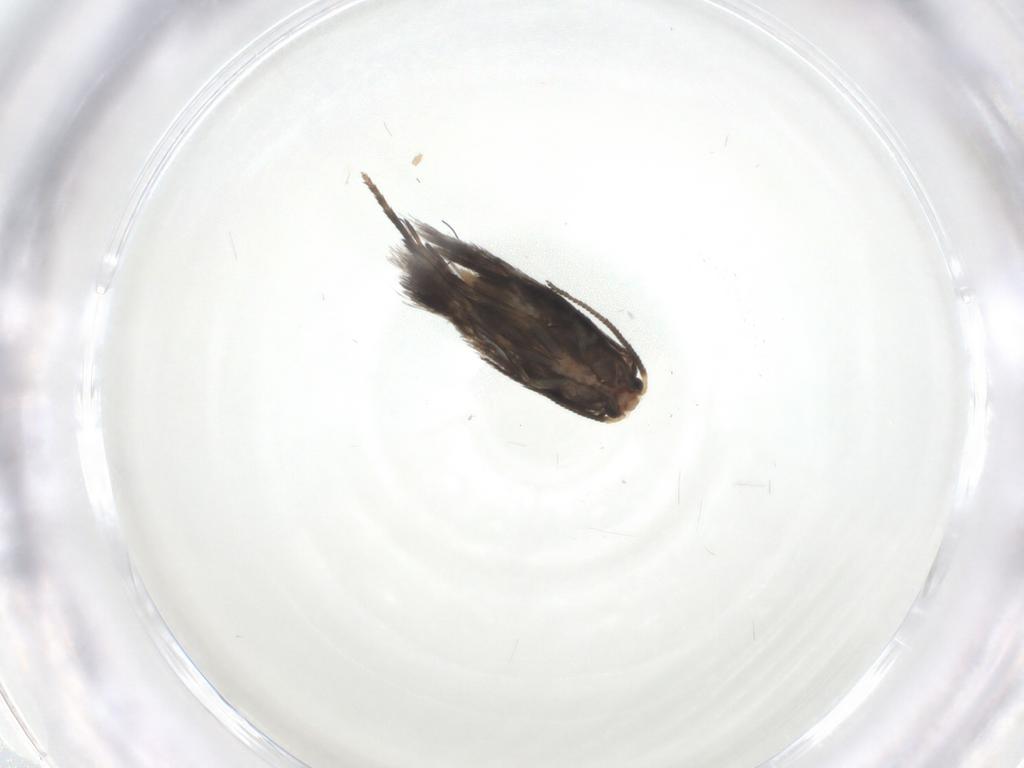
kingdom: Animalia
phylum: Arthropoda
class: Insecta
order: Lepidoptera
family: Nepticulidae
